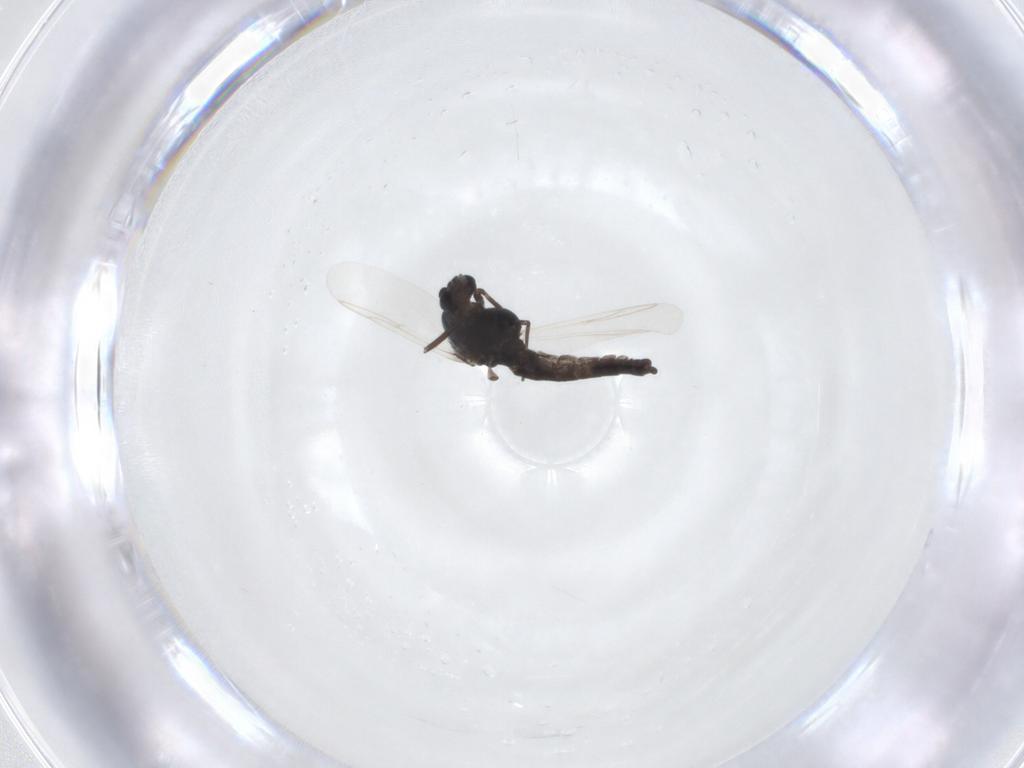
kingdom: Animalia
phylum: Arthropoda
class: Insecta
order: Diptera
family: Chironomidae
